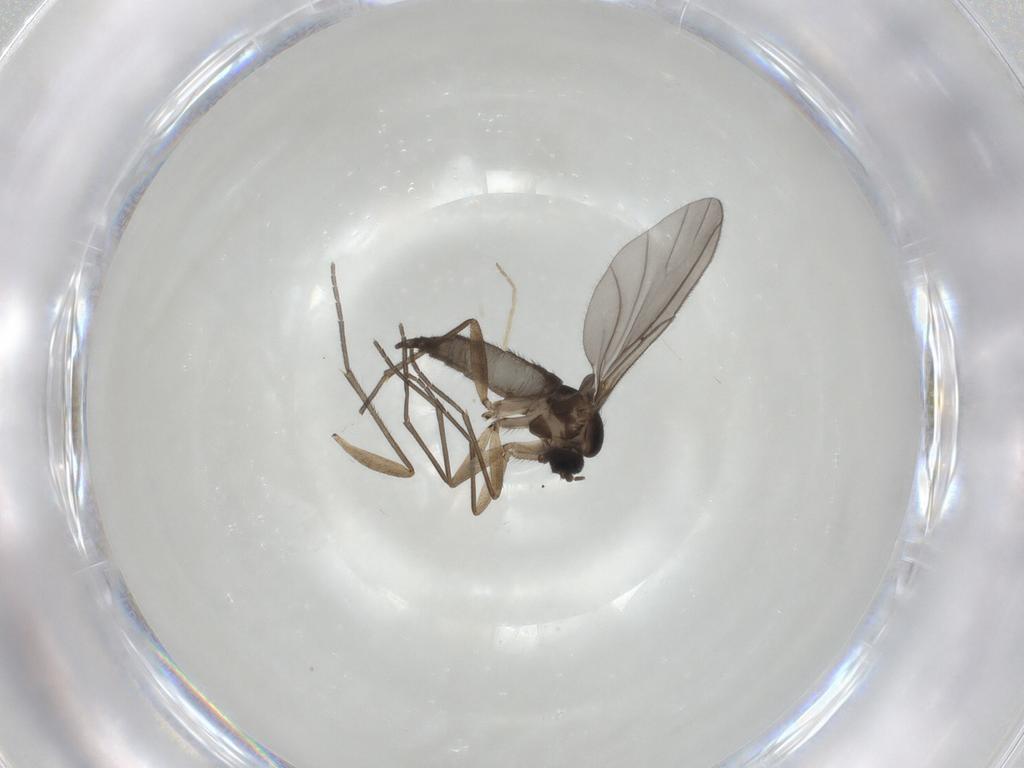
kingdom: Animalia
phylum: Arthropoda
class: Insecta
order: Diptera
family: Sciaridae
